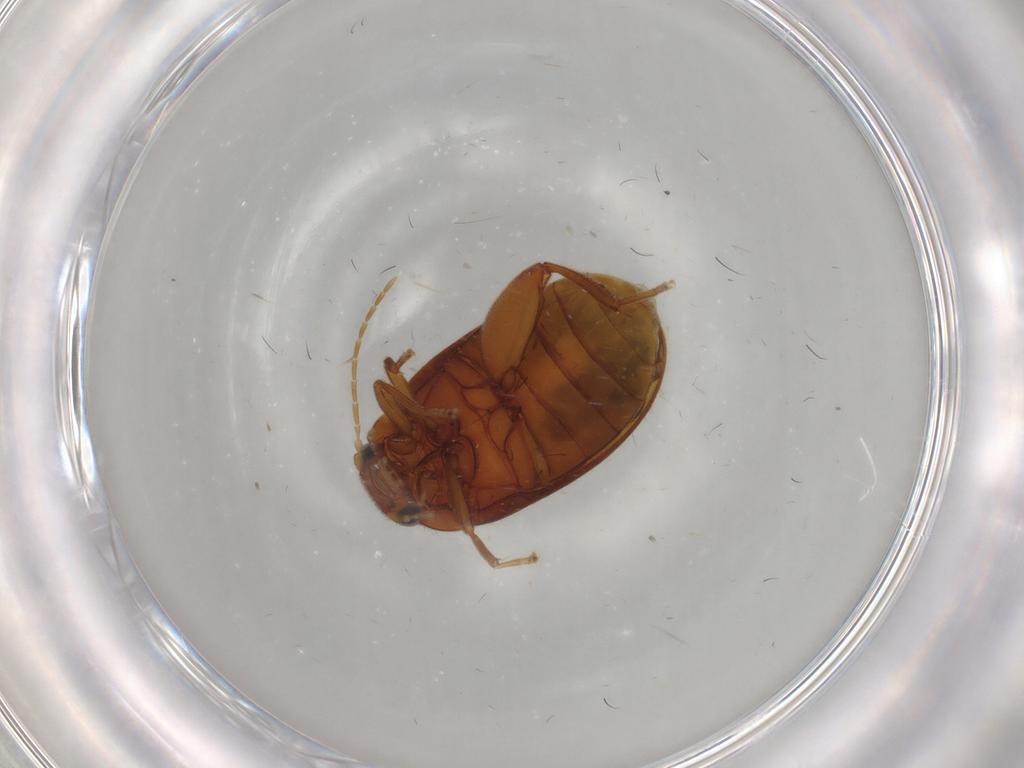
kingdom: Animalia
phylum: Arthropoda
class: Insecta
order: Coleoptera
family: Scirtidae
